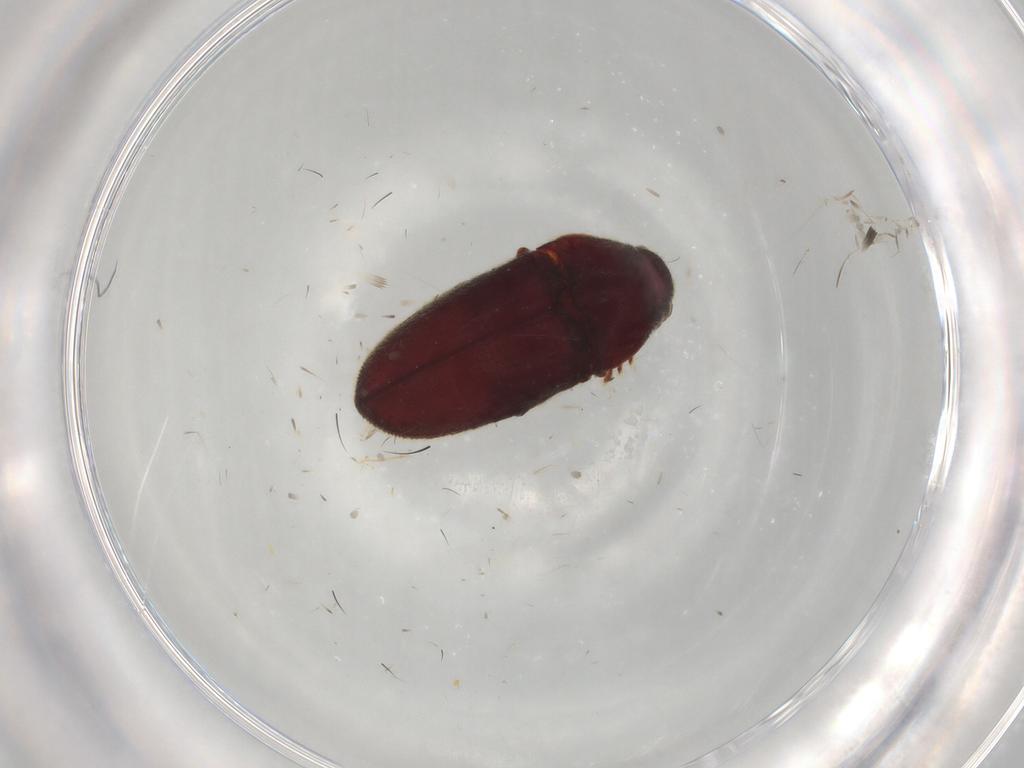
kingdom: Animalia
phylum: Arthropoda
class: Insecta
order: Coleoptera
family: Throscidae
